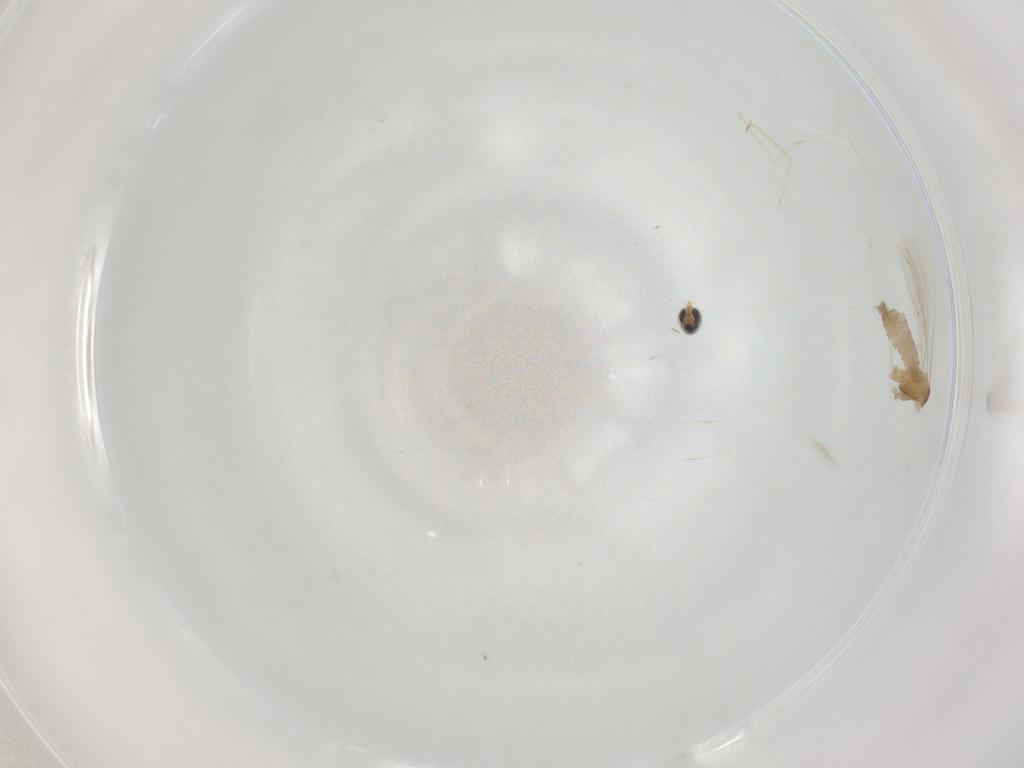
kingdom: Animalia
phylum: Arthropoda
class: Insecta
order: Diptera
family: Cecidomyiidae
